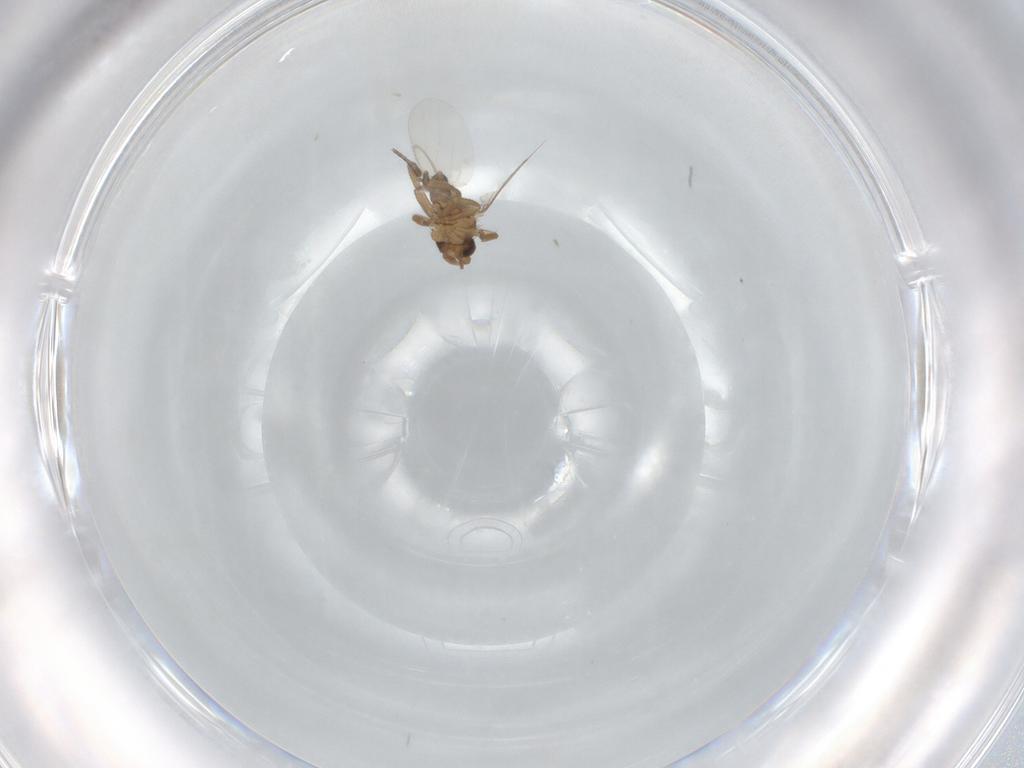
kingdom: Animalia
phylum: Arthropoda
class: Insecta
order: Diptera
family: Phoridae
